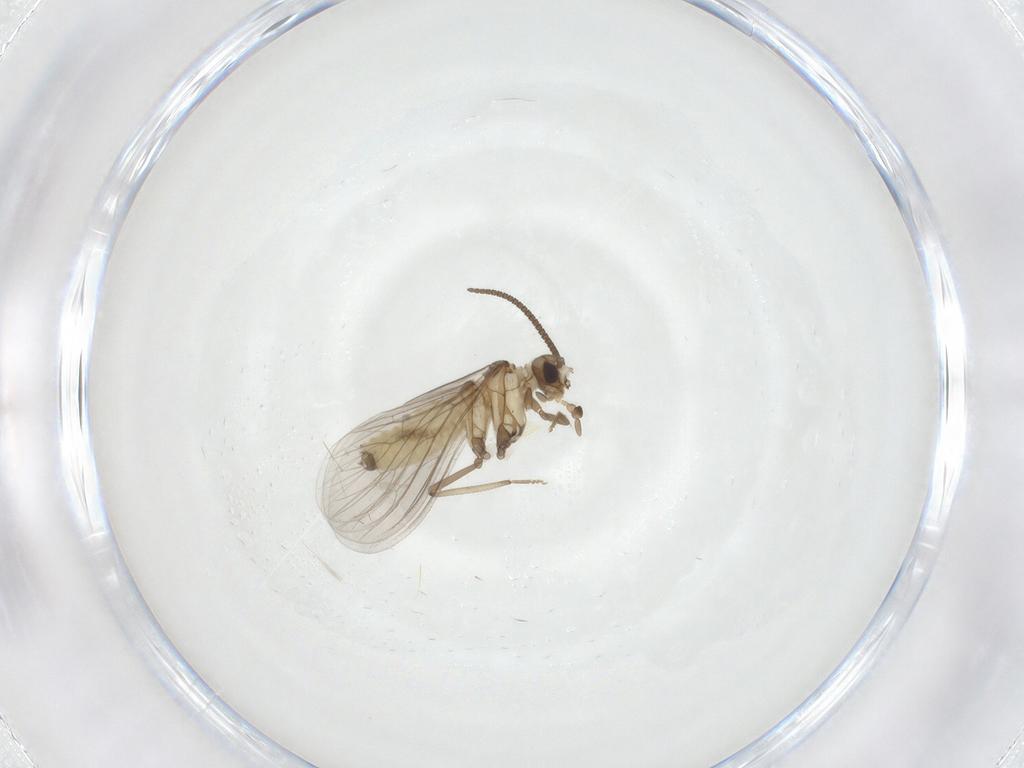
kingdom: Animalia
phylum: Arthropoda
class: Insecta
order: Neuroptera
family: Coniopterygidae
